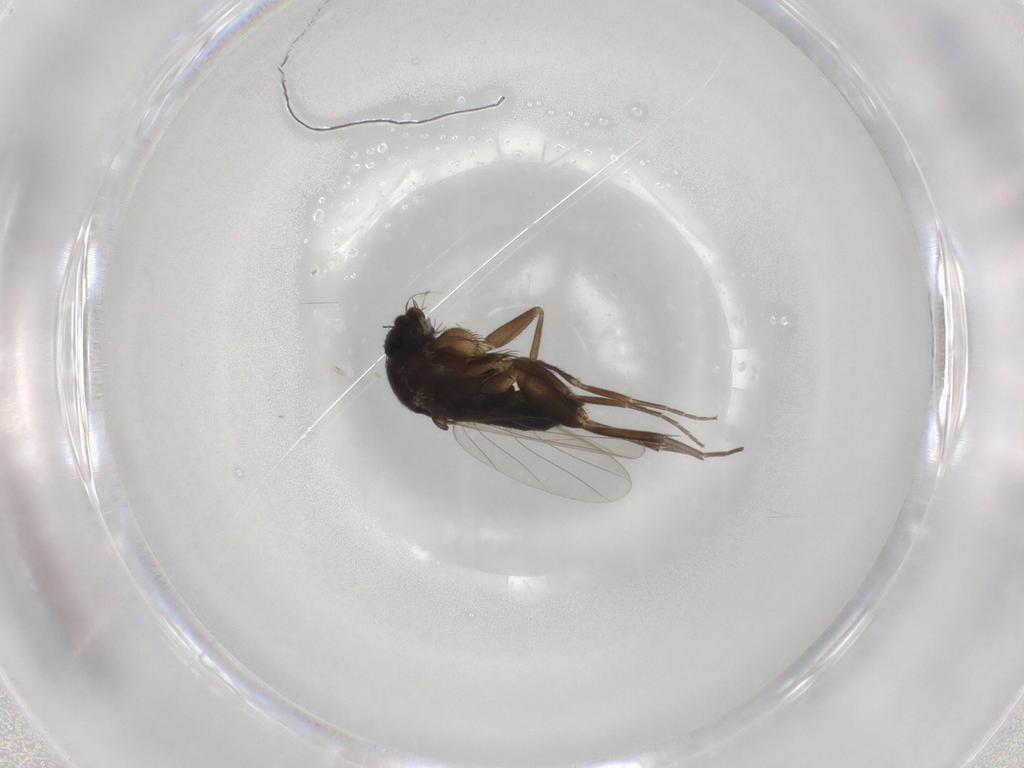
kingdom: Animalia
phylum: Arthropoda
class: Insecta
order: Diptera
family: Phoridae
